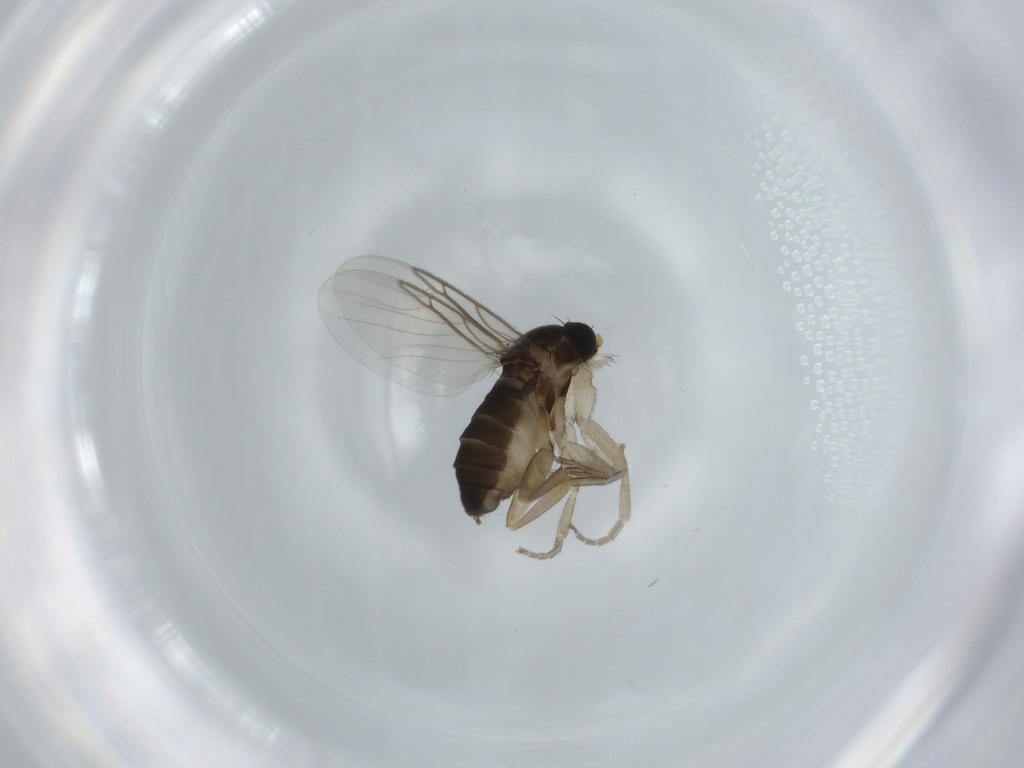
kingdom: Animalia
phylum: Arthropoda
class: Insecta
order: Diptera
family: Phoridae
